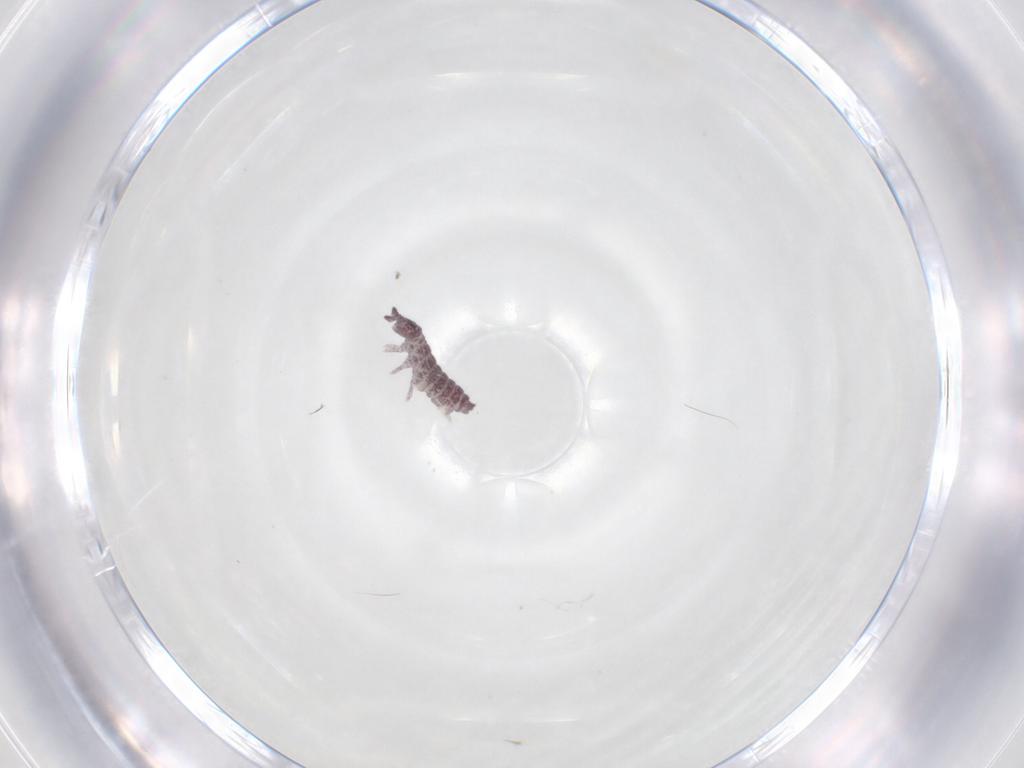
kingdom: Animalia
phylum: Arthropoda
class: Collembola
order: Poduromorpha
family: Hypogastruridae
